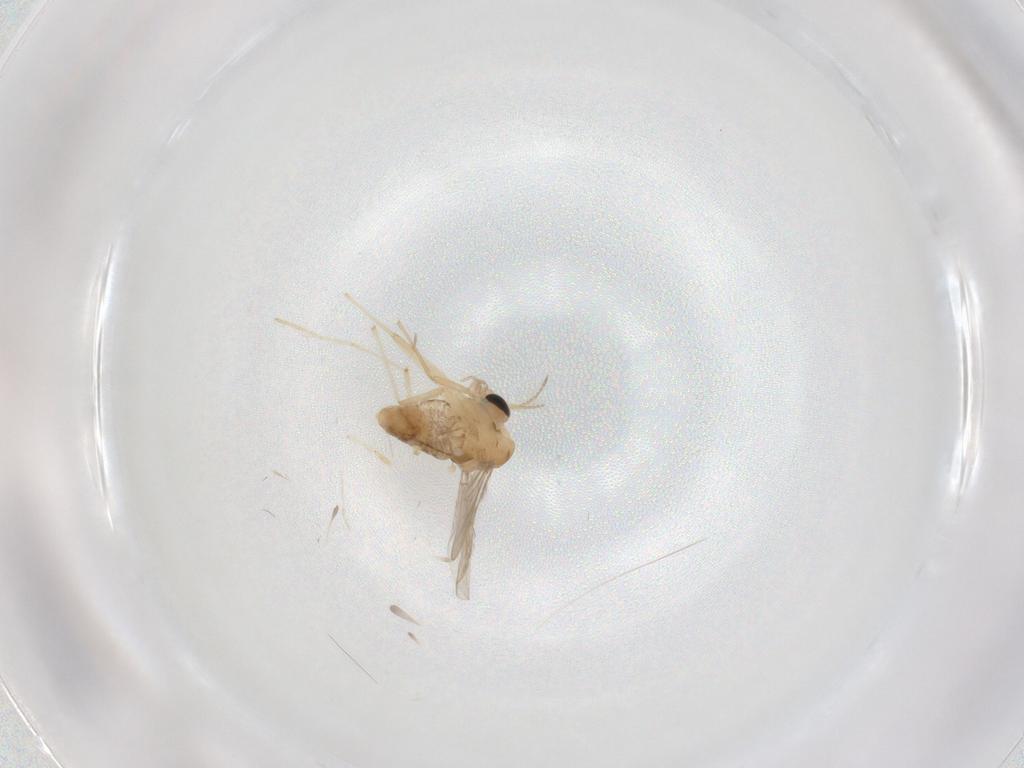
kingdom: Animalia
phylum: Arthropoda
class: Insecta
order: Diptera
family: Chironomidae
